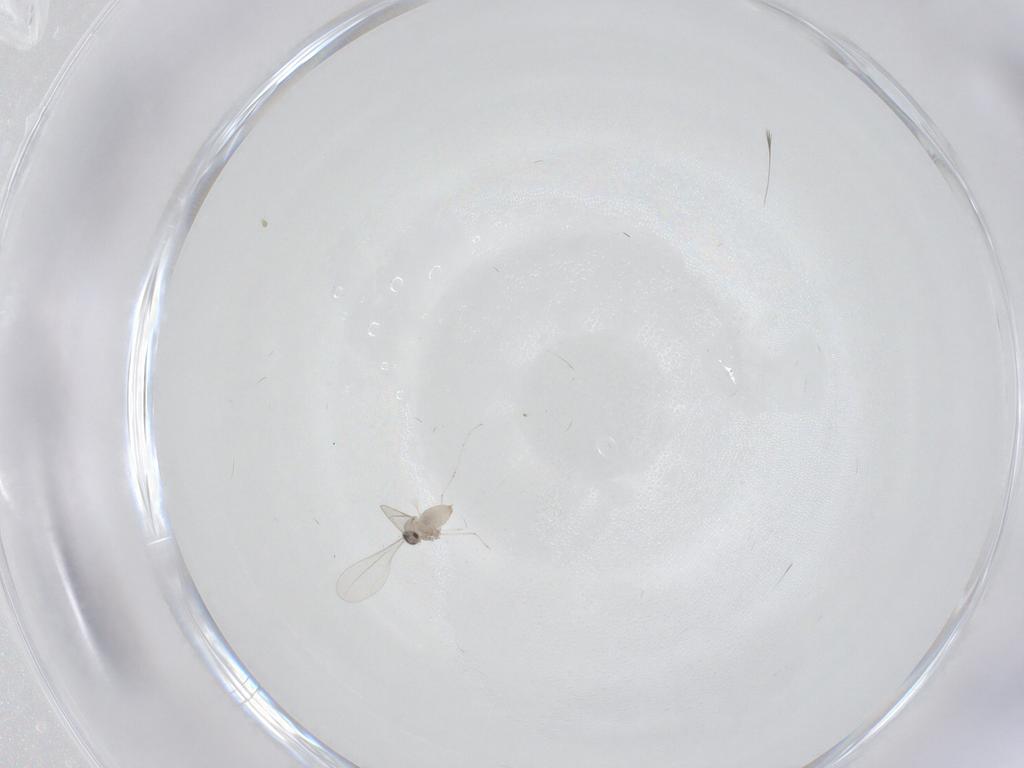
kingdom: Animalia
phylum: Arthropoda
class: Insecta
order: Diptera
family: Cecidomyiidae
